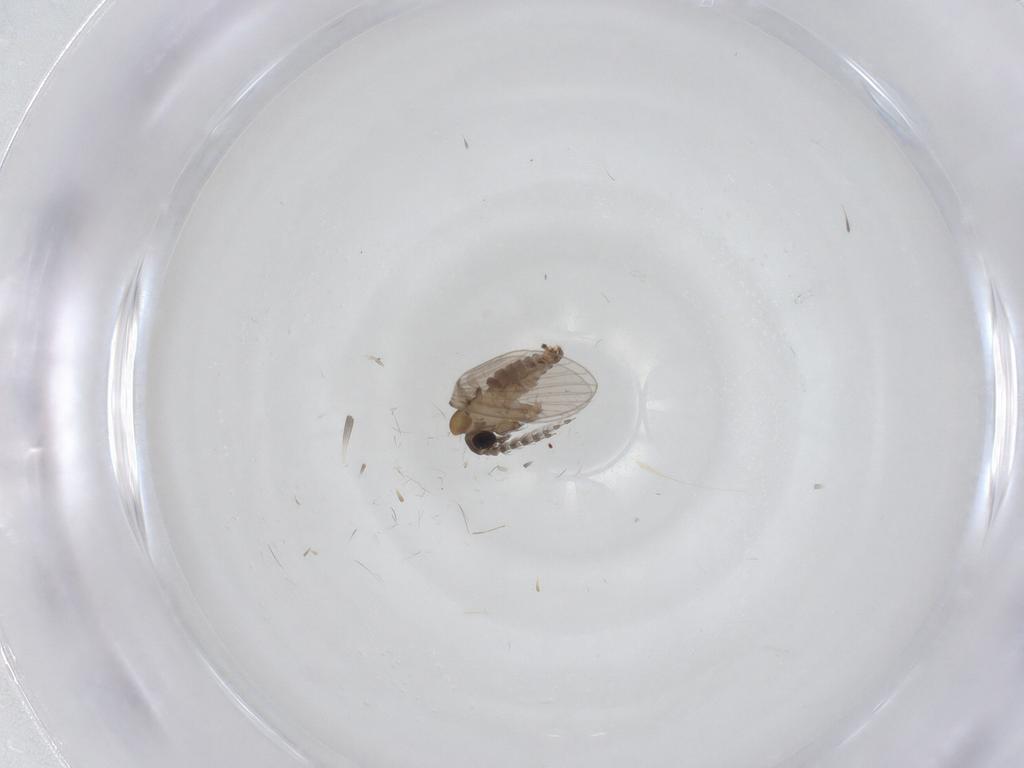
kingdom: Animalia
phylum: Arthropoda
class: Insecta
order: Diptera
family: Psychodidae
